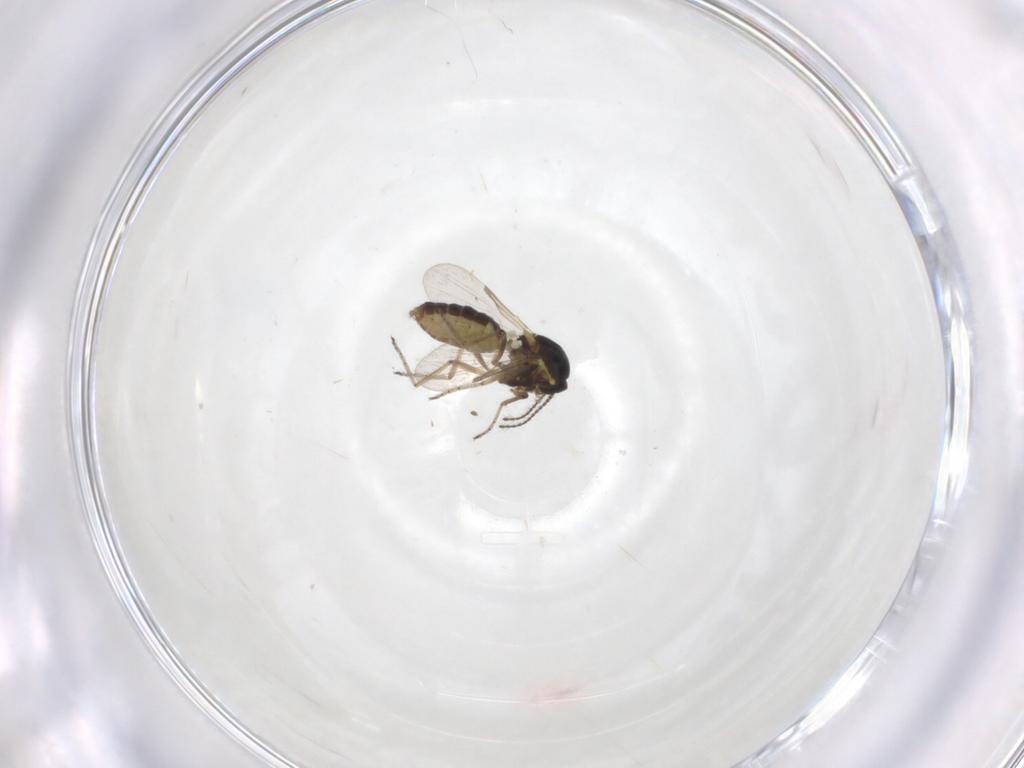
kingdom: Animalia
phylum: Arthropoda
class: Insecta
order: Diptera
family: Ceratopogonidae
